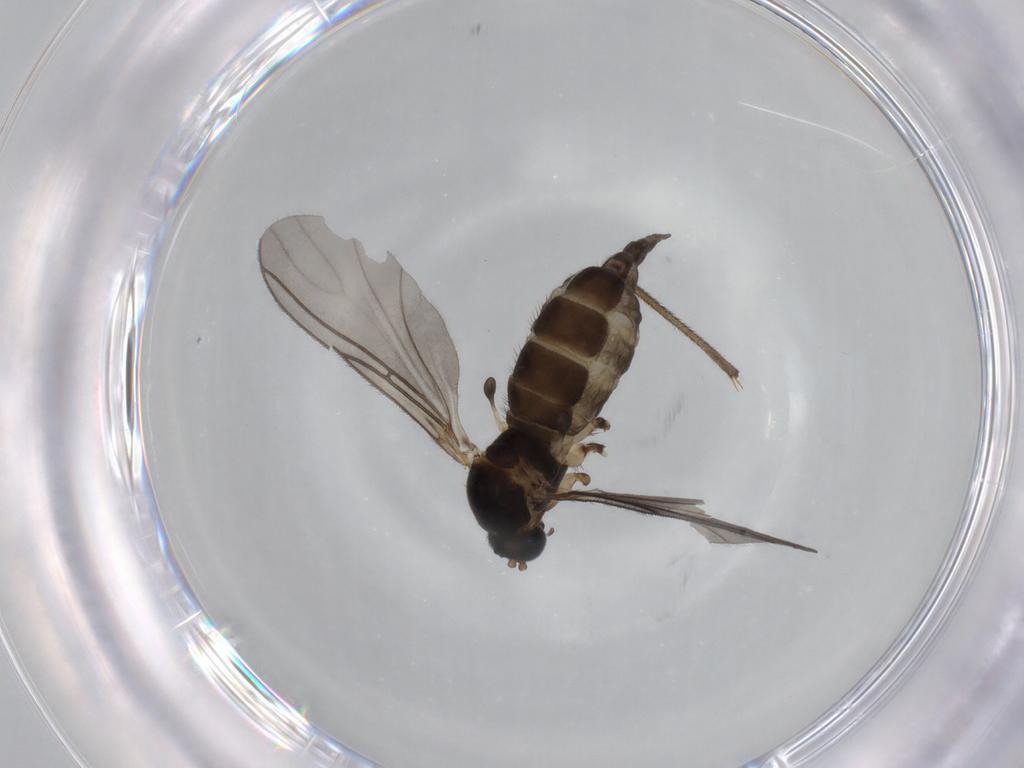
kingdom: Animalia
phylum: Arthropoda
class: Insecta
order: Diptera
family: Sciaridae
